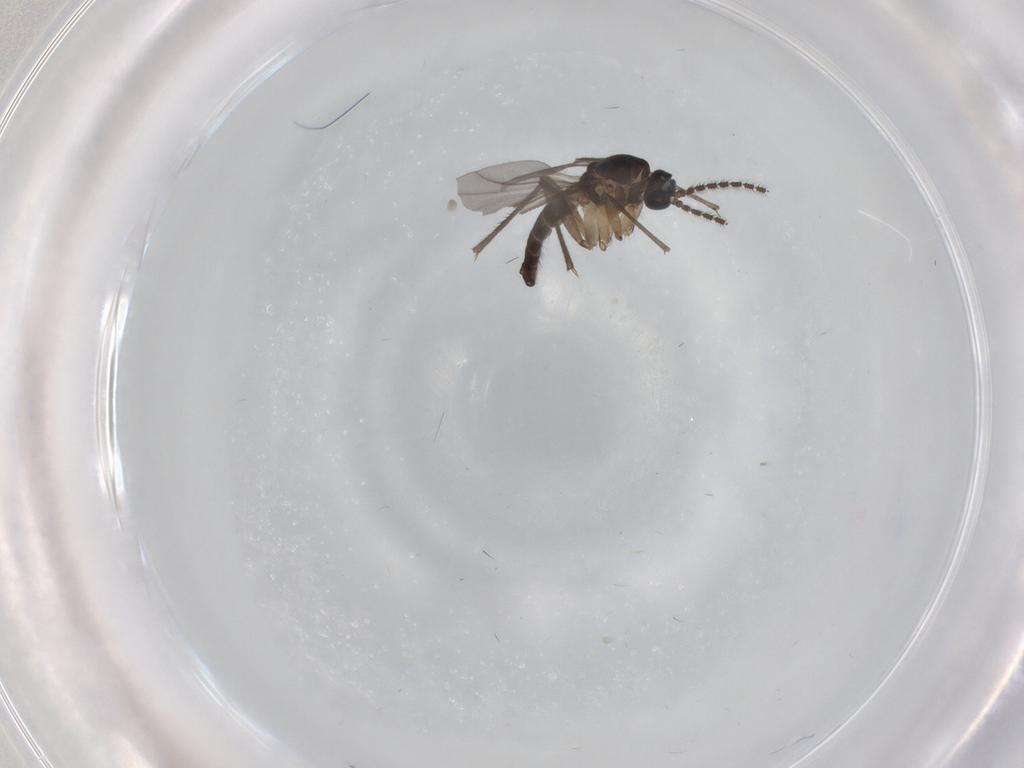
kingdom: Animalia
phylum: Arthropoda
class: Insecta
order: Diptera
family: Sciaridae
